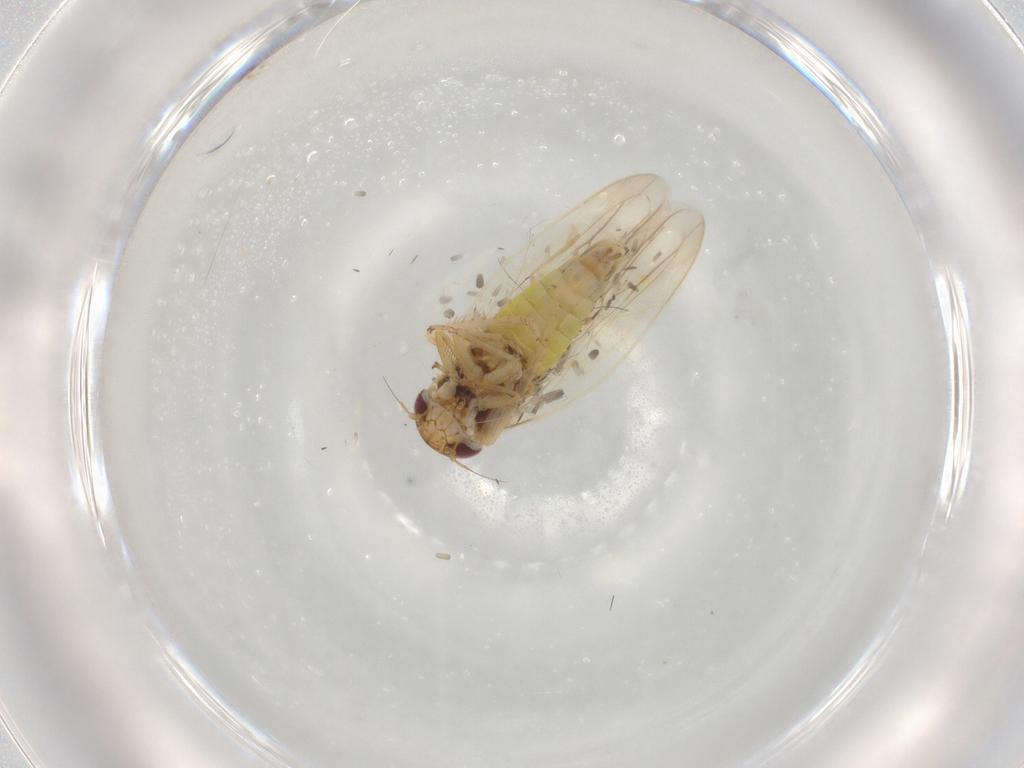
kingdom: Animalia
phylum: Arthropoda
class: Insecta
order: Hemiptera
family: Cicadellidae
